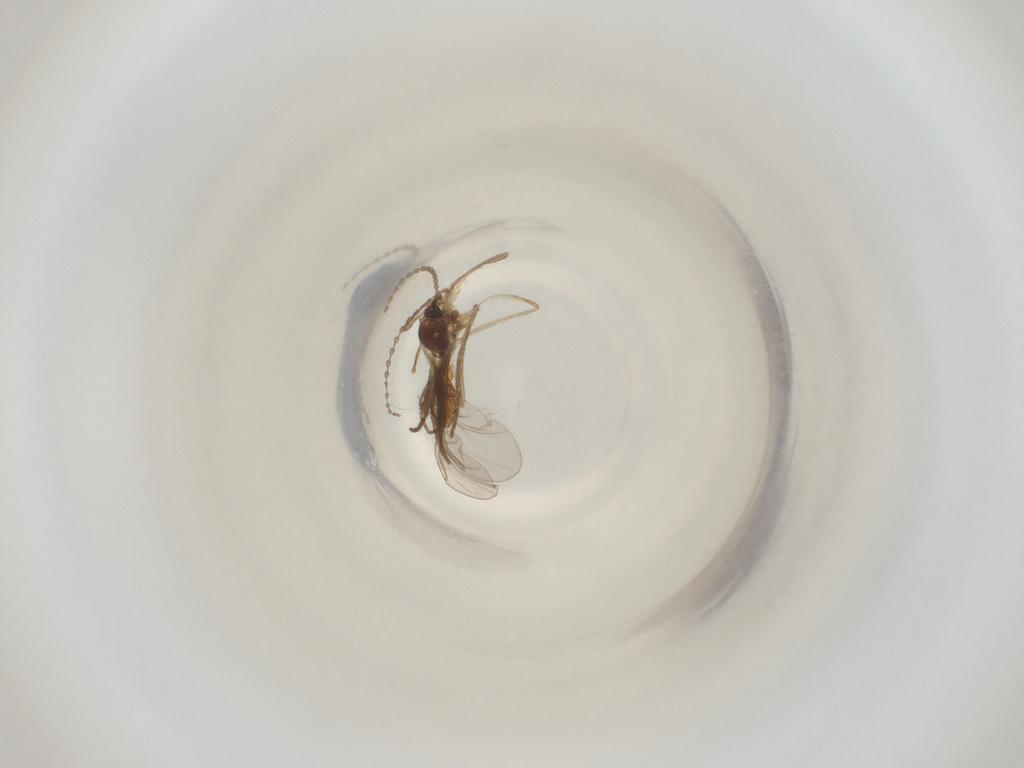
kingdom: Animalia
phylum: Arthropoda
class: Insecta
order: Diptera
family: Cecidomyiidae
